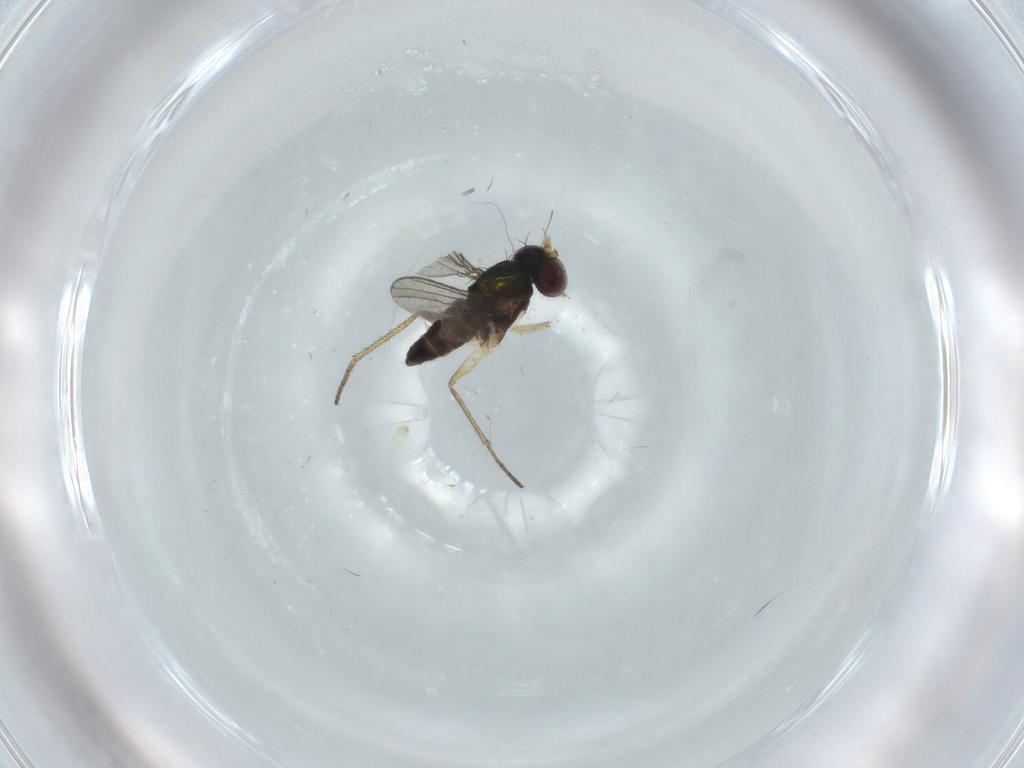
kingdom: Animalia
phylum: Arthropoda
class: Insecta
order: Diptera
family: Dolichopodidae
